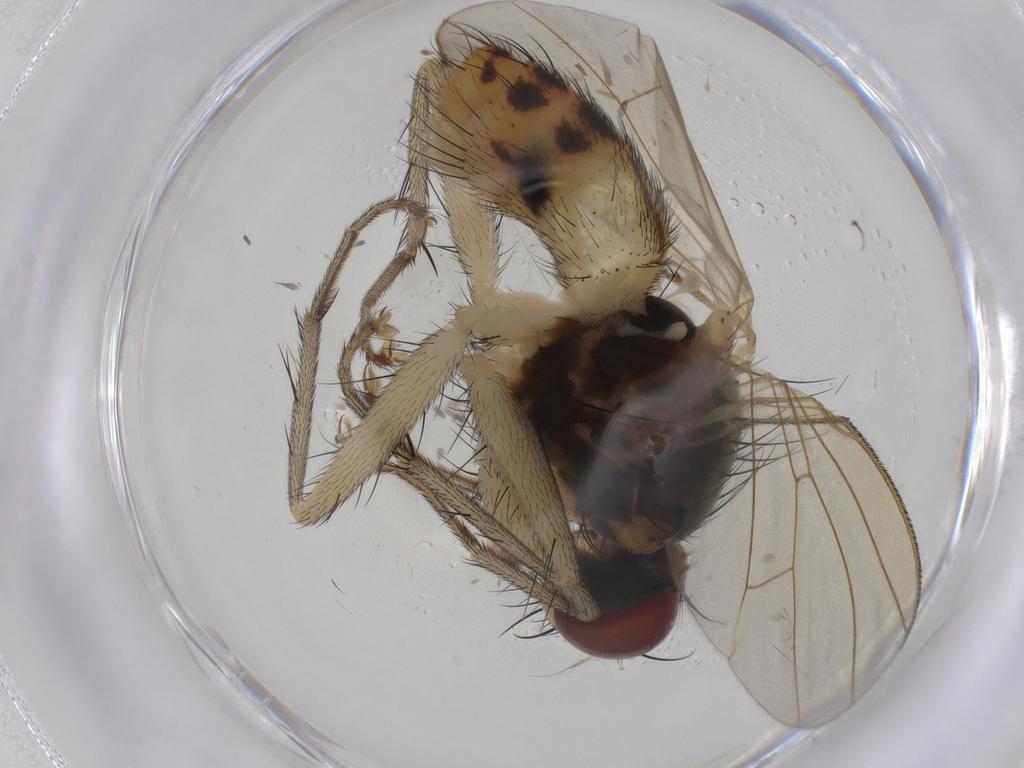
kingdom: Animalia
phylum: Arthropoda
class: Insecta
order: Diptera
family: Muscidae
